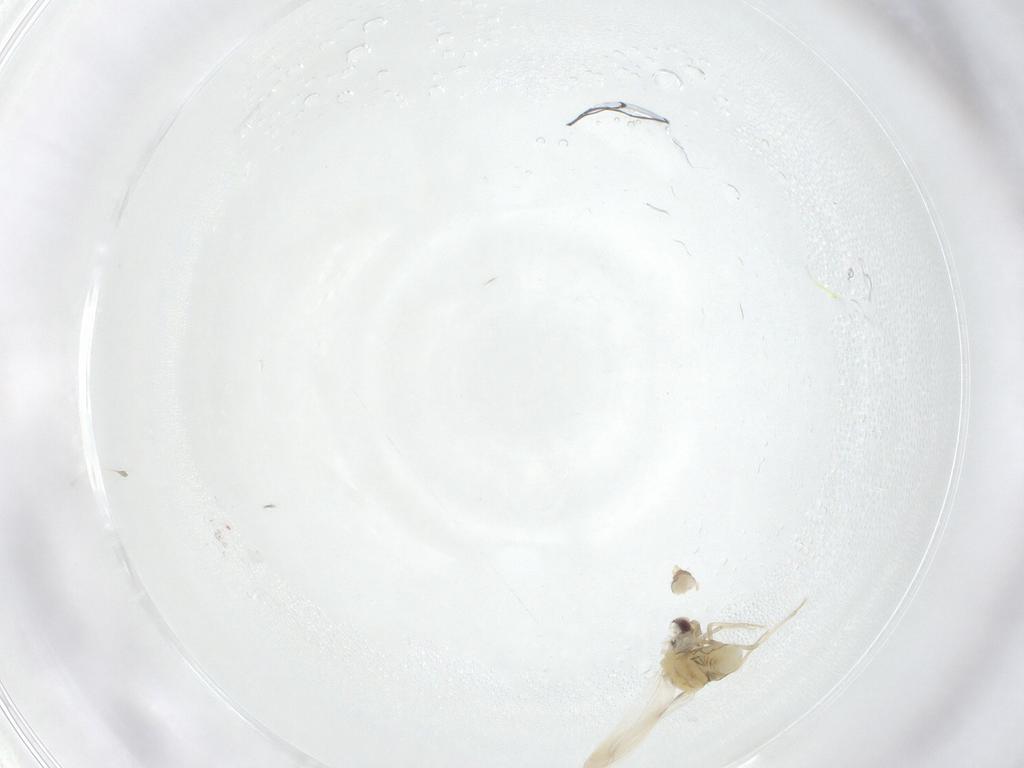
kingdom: Animalia
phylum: Arthropoda
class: Insecta
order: Hemiptera
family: Aleyrodidae
